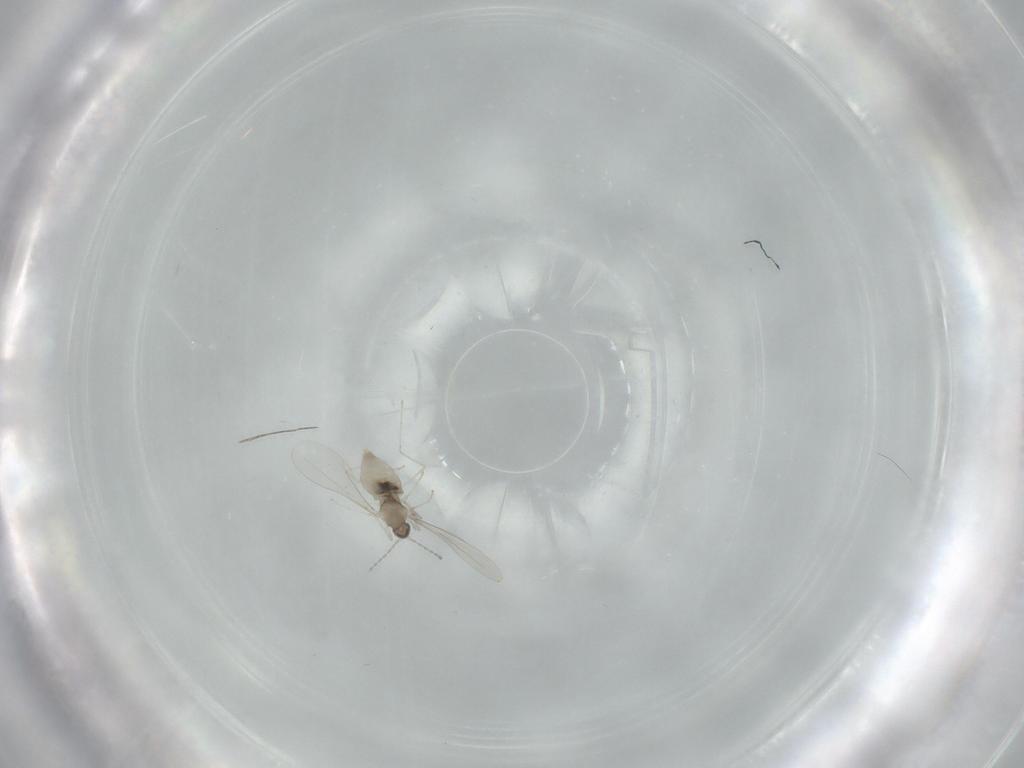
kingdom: Animalia
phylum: Arthropoda
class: Insecta
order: Diptera
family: Cecidomyiidae
